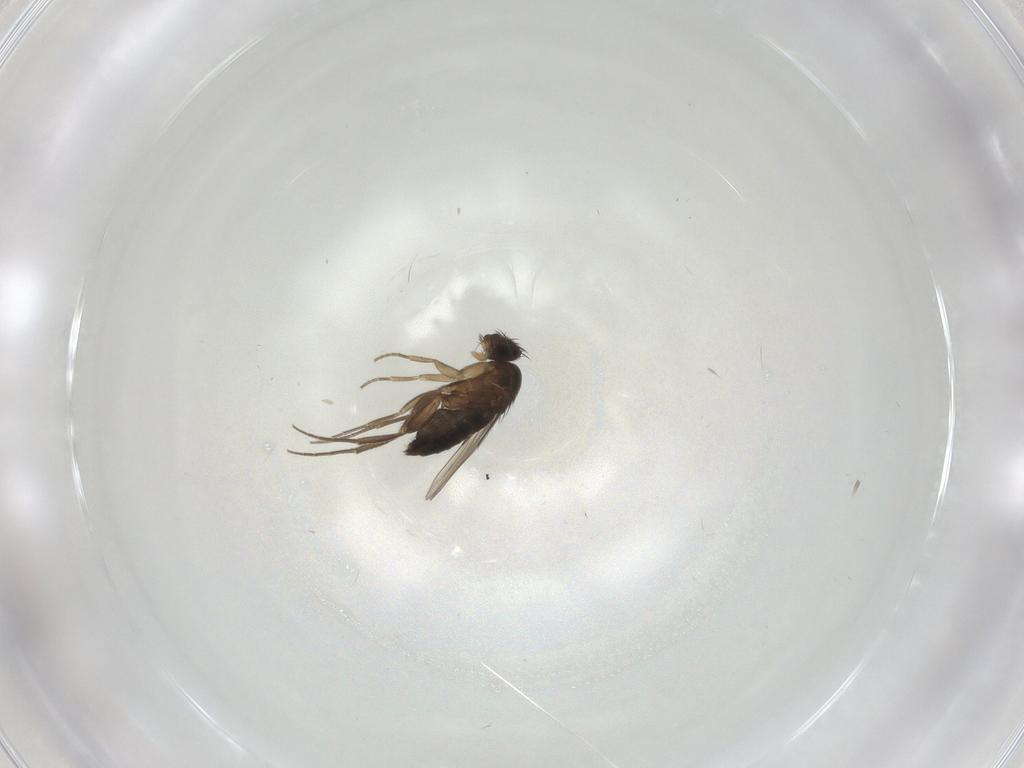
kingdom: Animalia
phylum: Arthropoda
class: Insecta
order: Diptera
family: Phoridae
